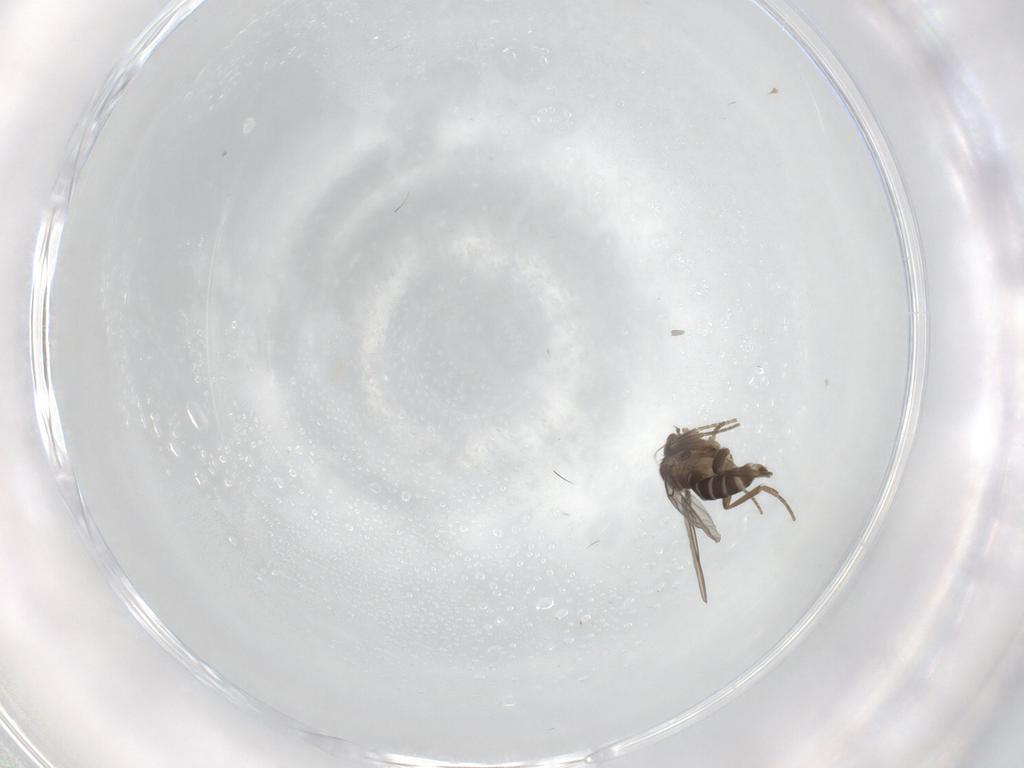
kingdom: Animalia
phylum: Arthropoda
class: Insecta
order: Diptera
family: Phoridae
